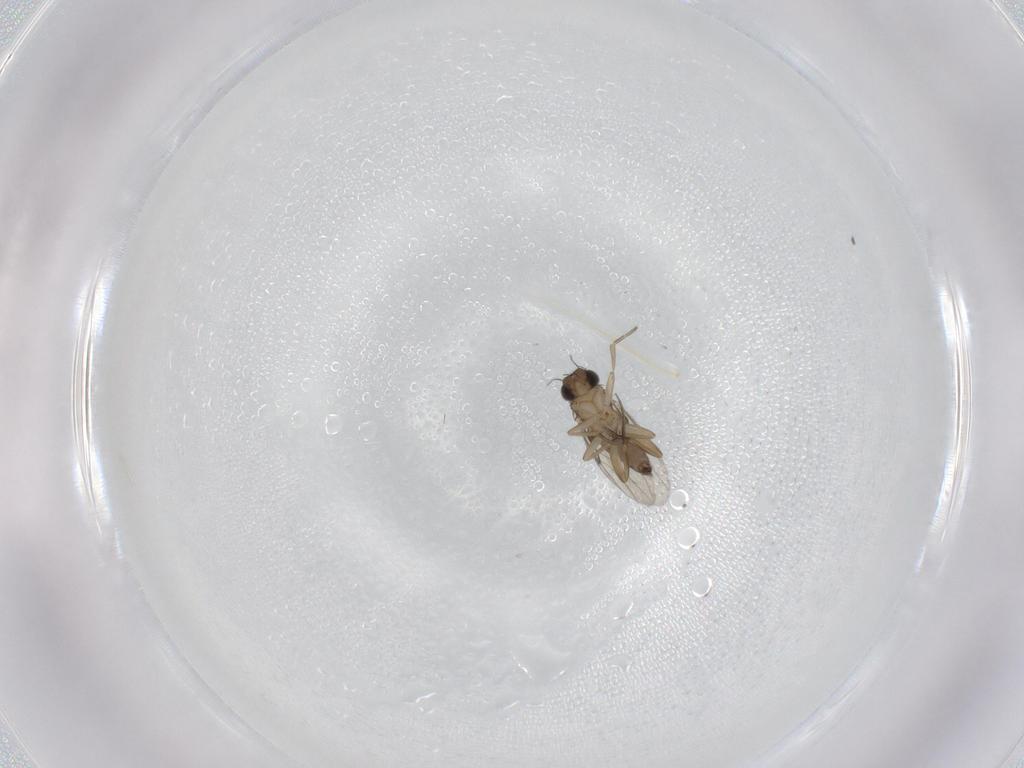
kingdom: Animalia
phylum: Arthropoda
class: Insecta
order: Diptera
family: Phoridae
